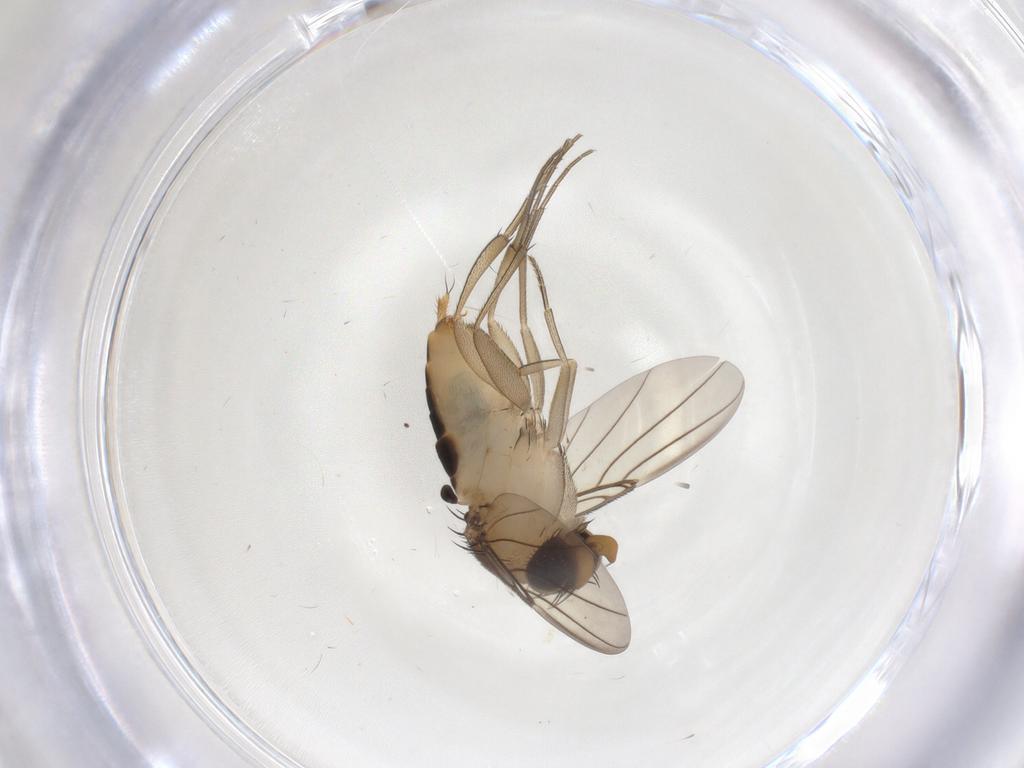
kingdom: Animalia
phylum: Arthropoda
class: Insecta
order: Diptera
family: Phoridae
